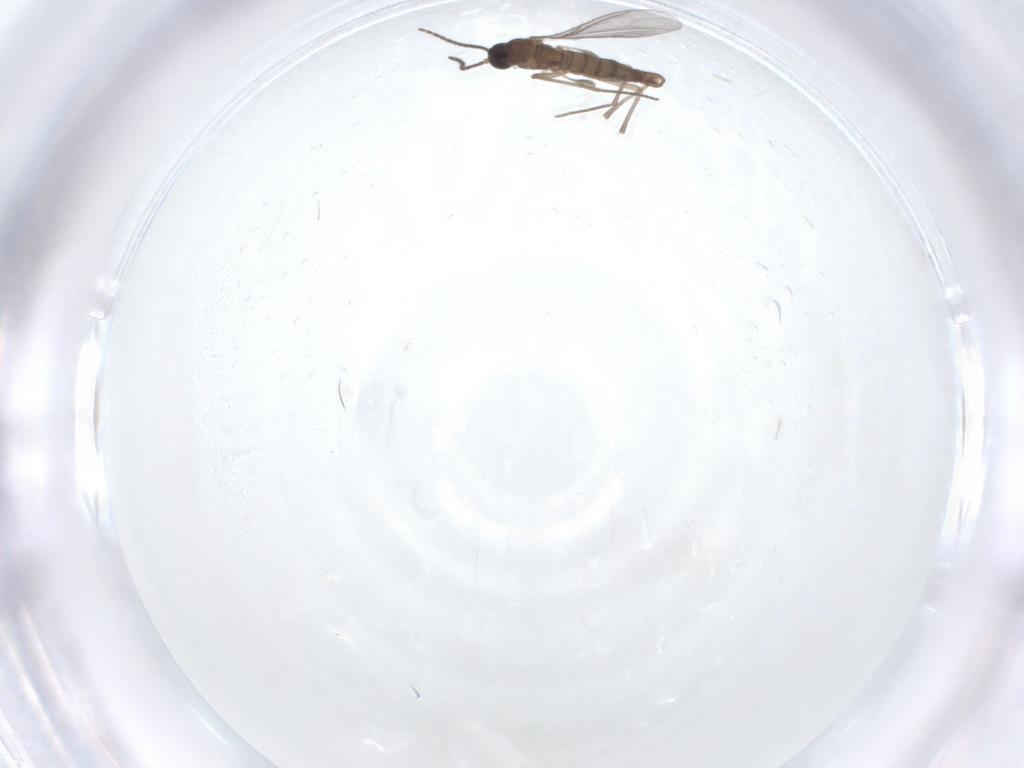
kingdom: Animalia
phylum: Arthropoda
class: Insecta
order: Diptera
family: Sciaridae
